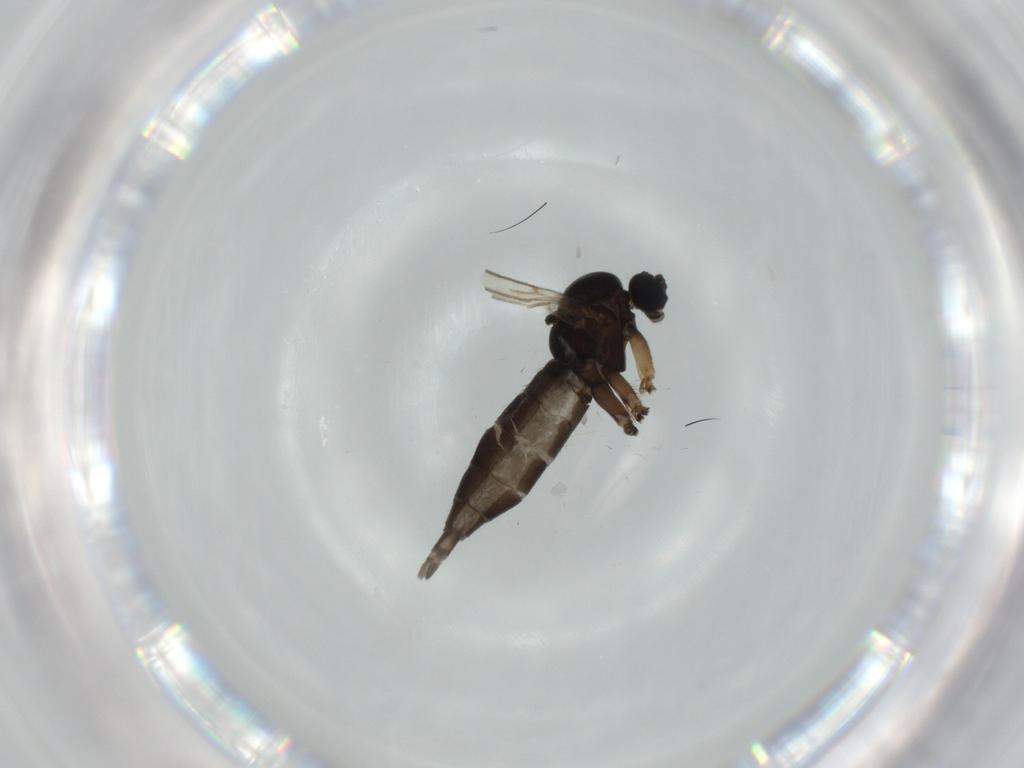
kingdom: Animalia
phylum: Arthropoda
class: Insecta
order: Diptera
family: Sciaridae
